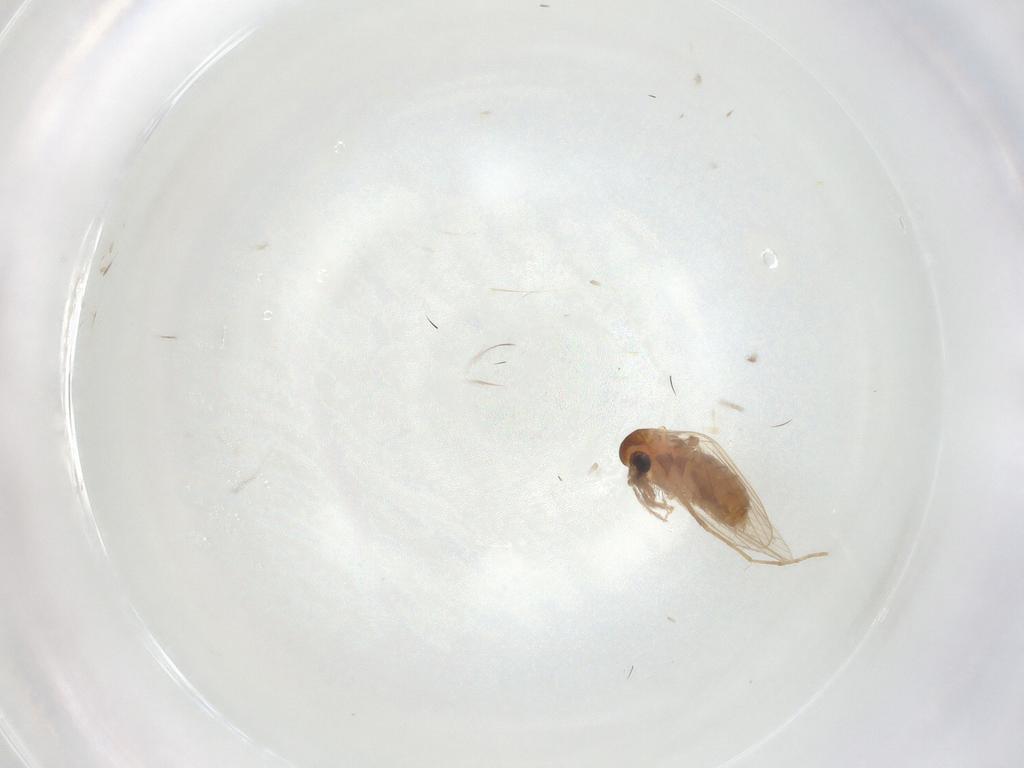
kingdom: Animalia
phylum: Arthropoda
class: Insecta
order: Diptera
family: Psychodidae
